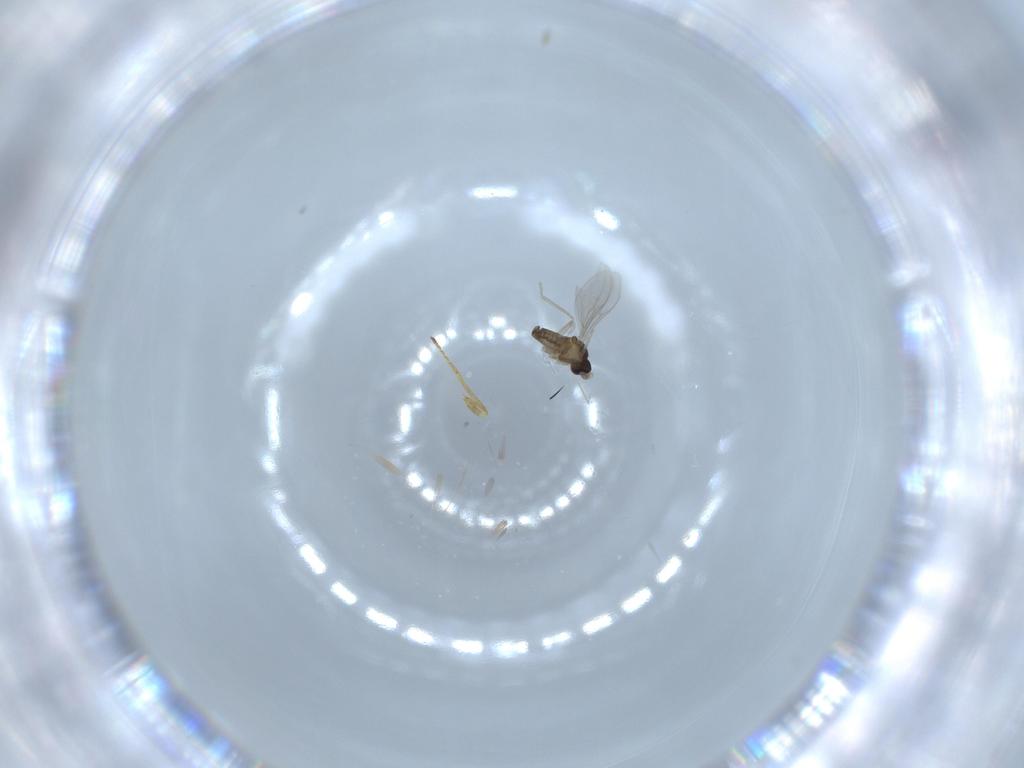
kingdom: Animalia
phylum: Arthropoda
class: Insecta
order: Diptera
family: Cecidomyiidae
